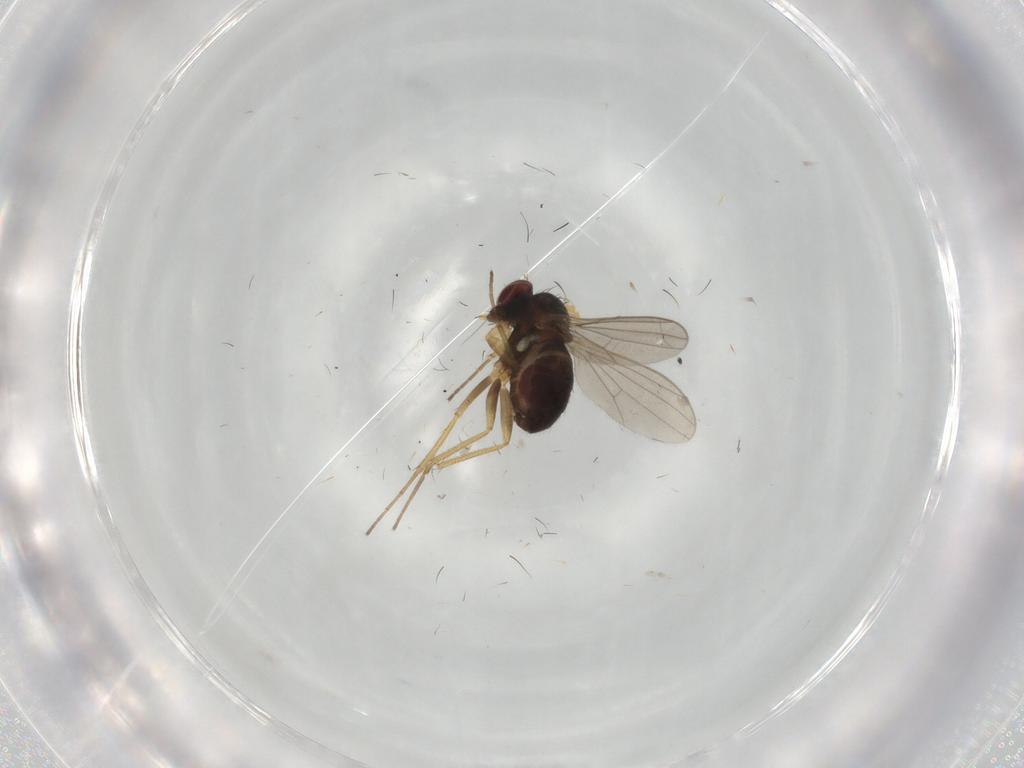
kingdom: Animalia
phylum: Arthropoda
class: Insecta
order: Diptera
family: Dolichopodidae
